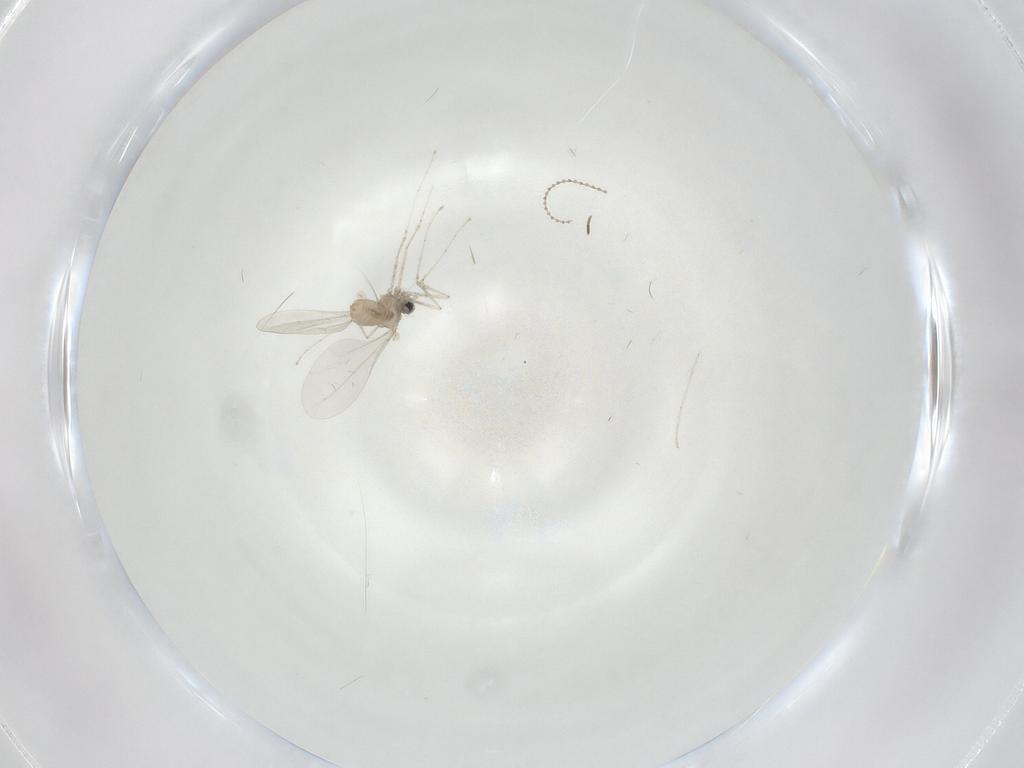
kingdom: Animalia
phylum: Arthropoda
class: Insecta
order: Diptera
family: Cecidomyiidae
